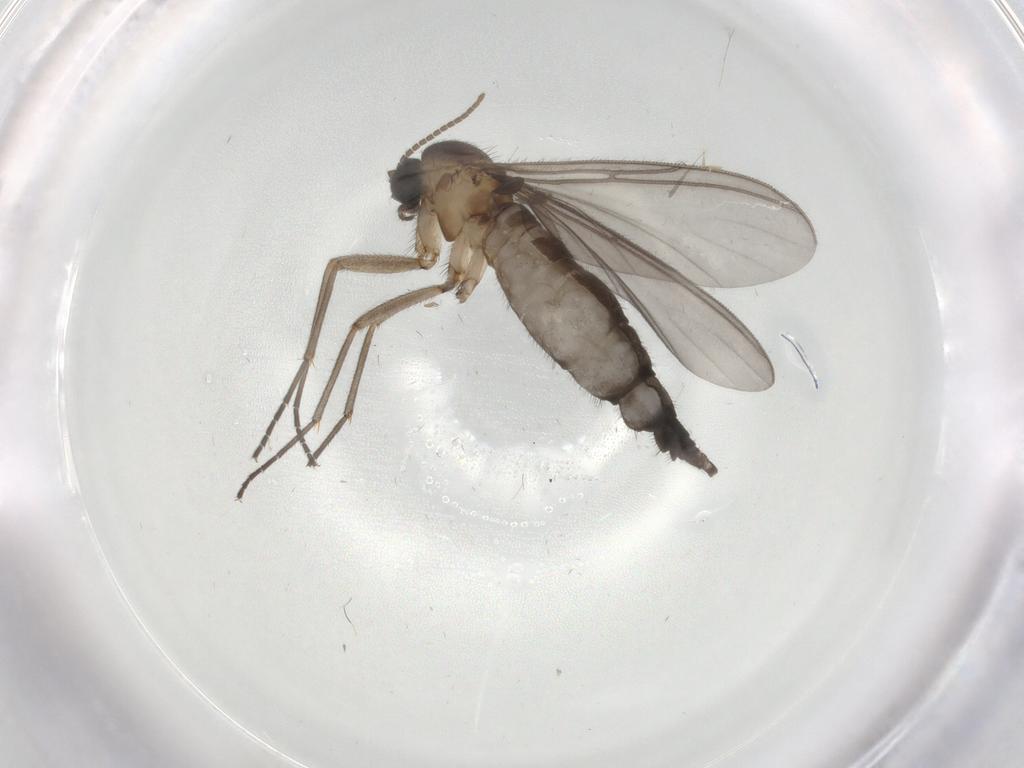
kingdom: Animalia
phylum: Arthropoda
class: Insecta
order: Diptera
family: Phoridae
